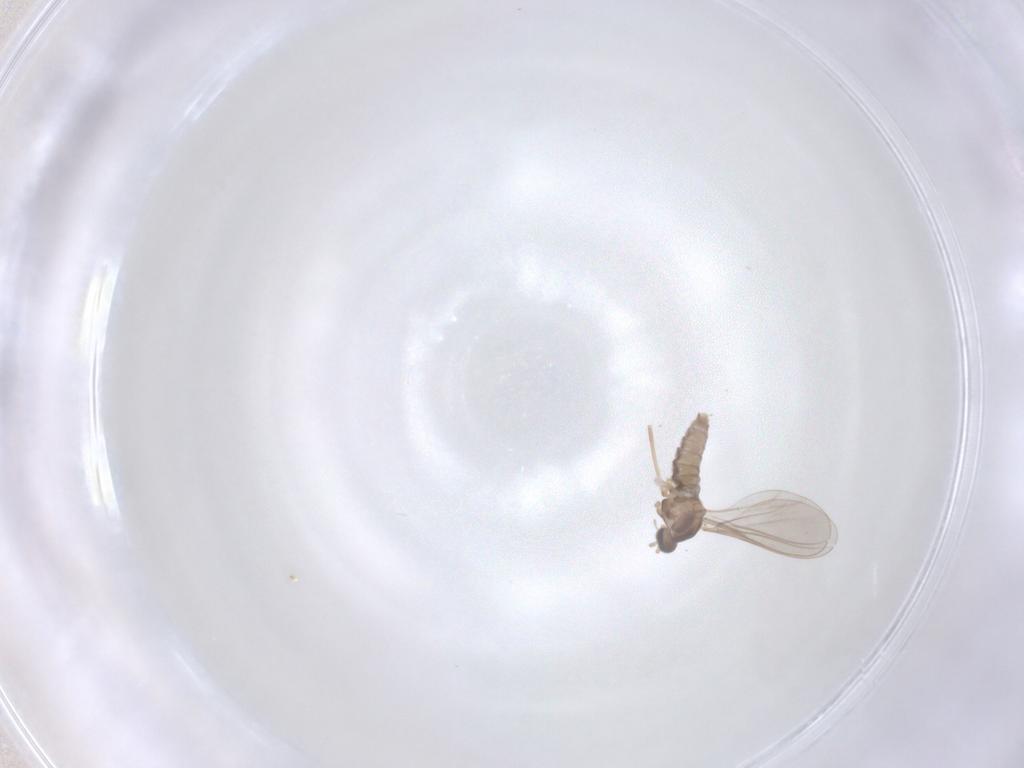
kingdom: Animalia
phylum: Arthropoda
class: Insecta
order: Diptera
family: Cecidomyiidae
